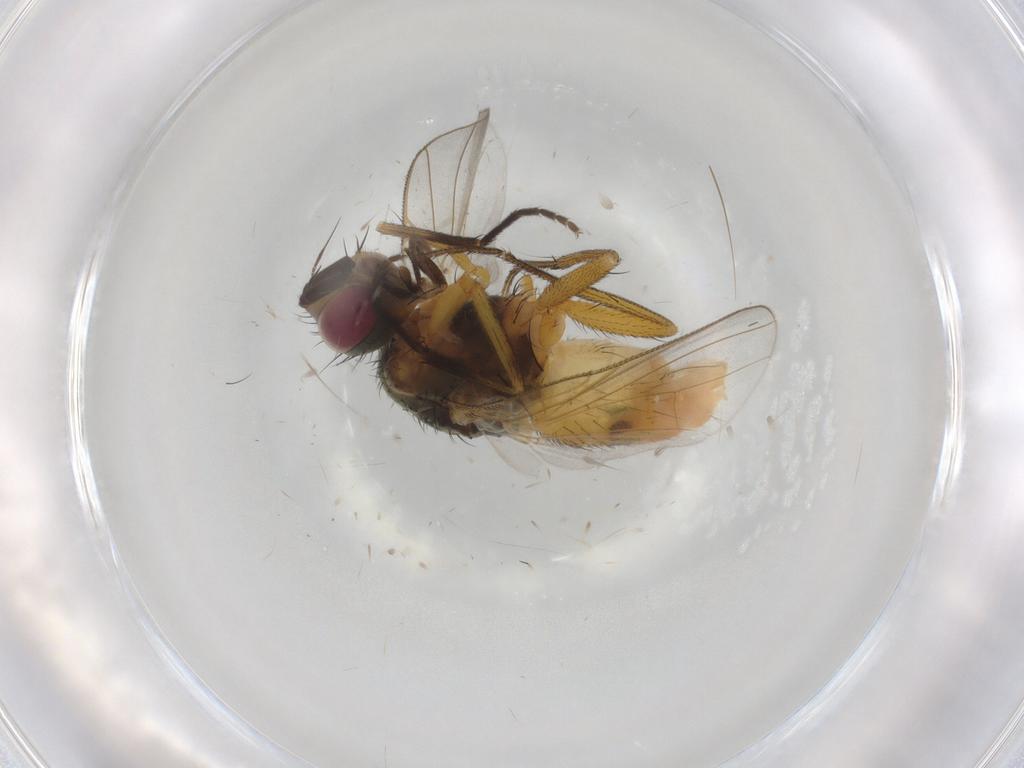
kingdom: Animalia
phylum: Arthropoda
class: Insecta
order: Diptera
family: Muscidae
